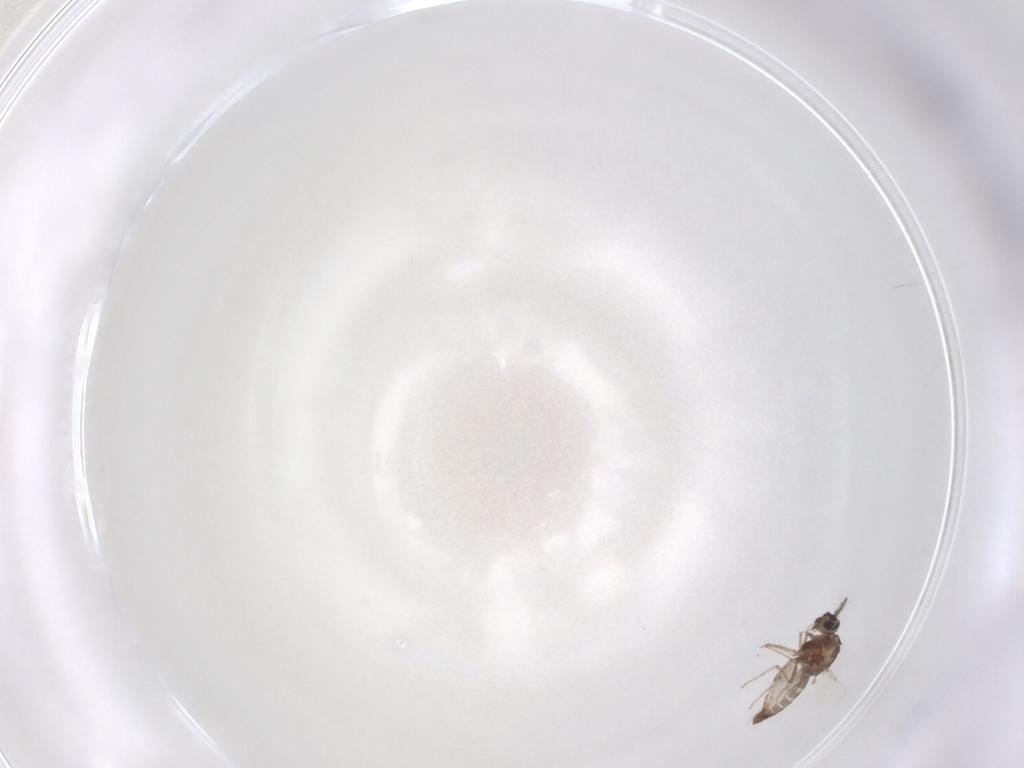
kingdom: Animalia
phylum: Arthropoda
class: Insecta
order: Diptera
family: Ceratopogonidae
